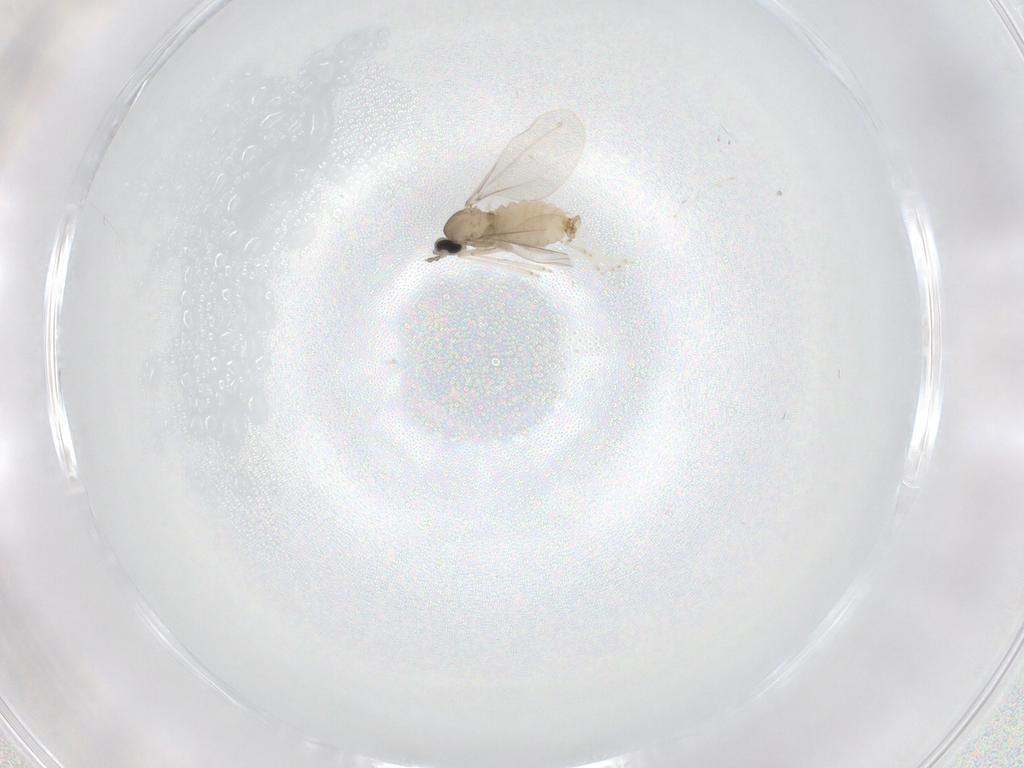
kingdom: Animalia
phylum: Arthropoda
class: Insecta
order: Diptera
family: Cecidomyiidae
